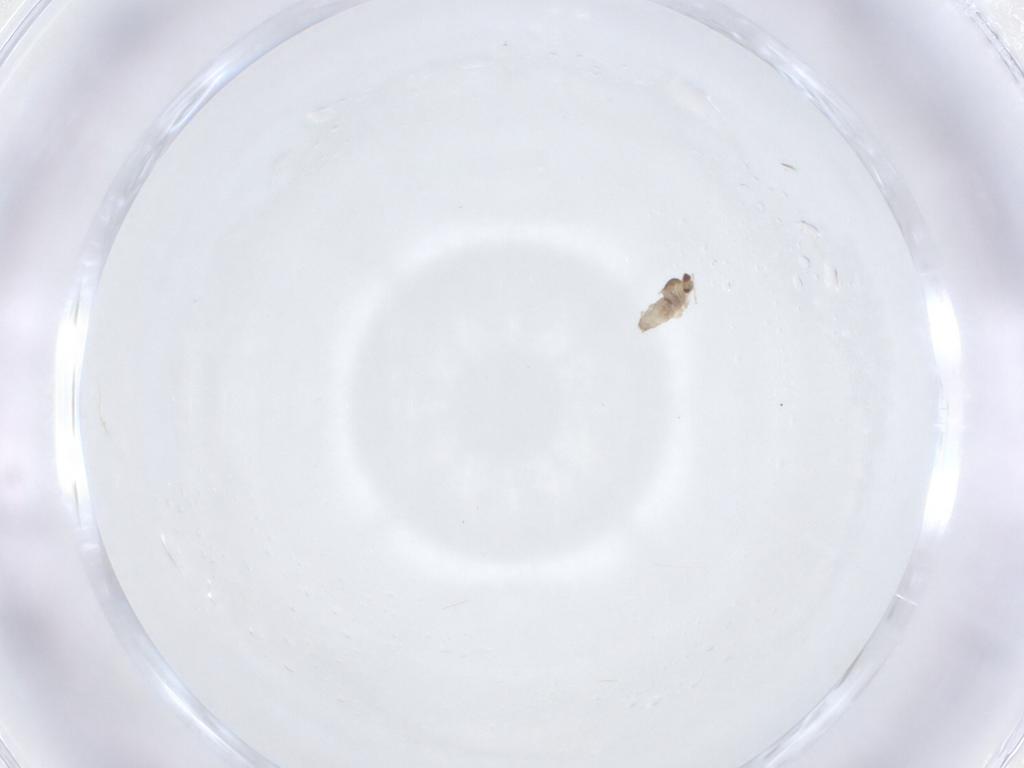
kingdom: Animalia
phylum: Arthropoda
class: Insecta
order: Diptera
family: Cecidomyiidae
